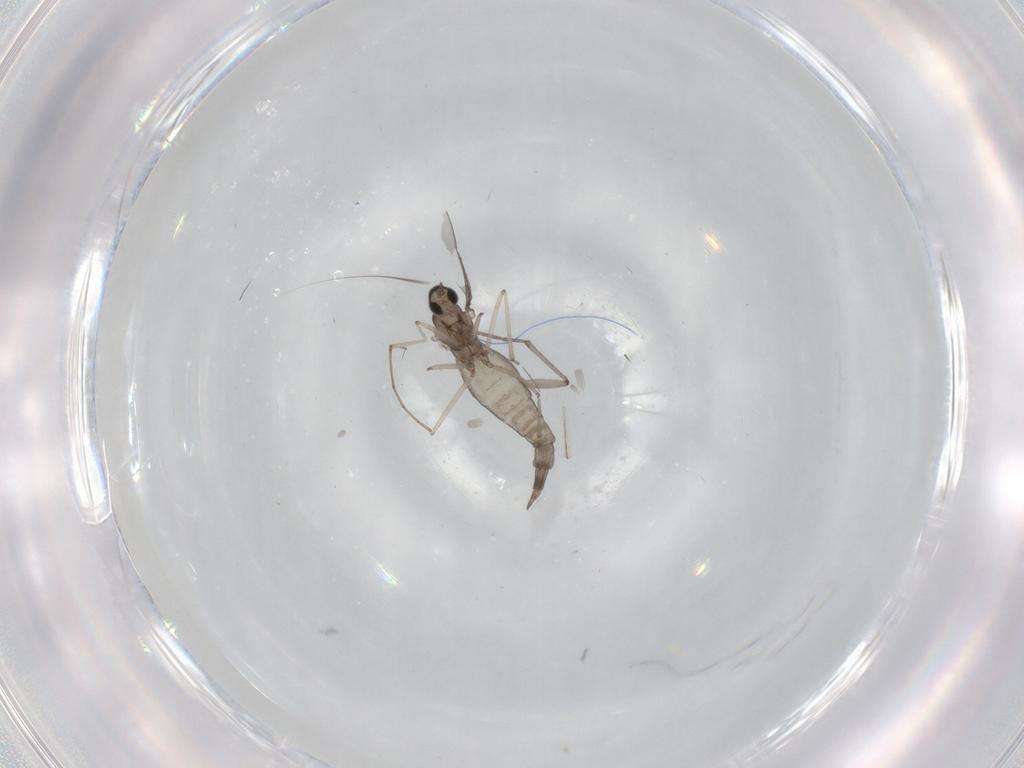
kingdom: Animalia
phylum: Arthropoda
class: Insecta
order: Diptera
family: Cecidomyiidae
